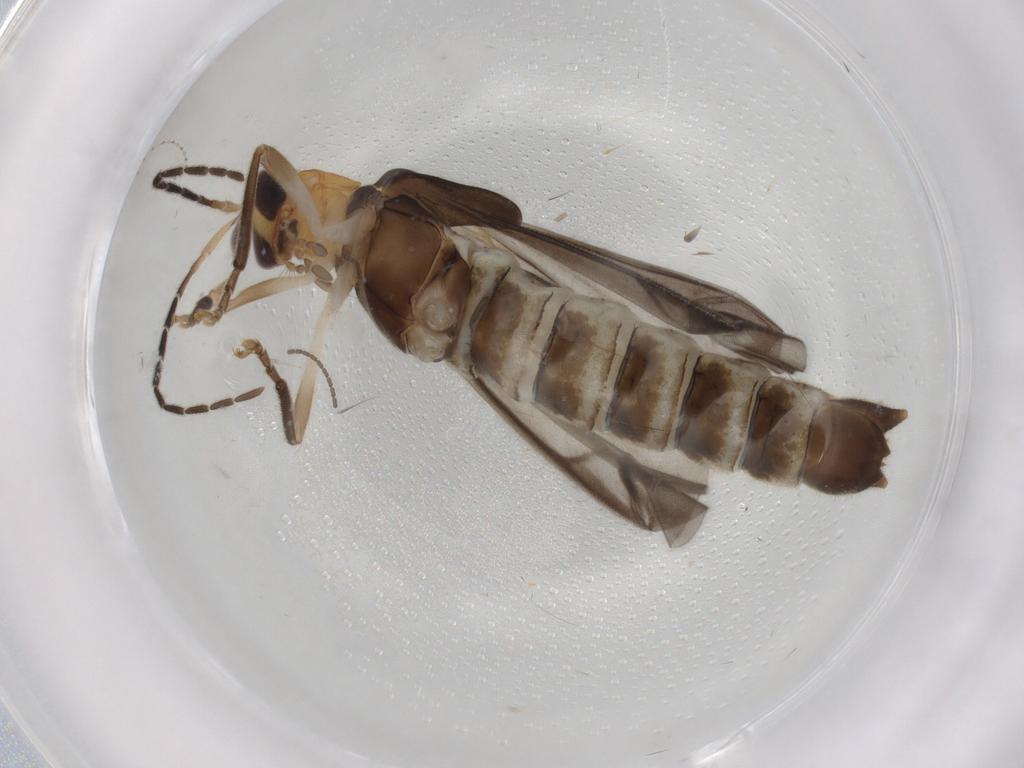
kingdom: Animalia
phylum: Arthropoda
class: Insecta
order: Coleoptera
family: Cantharidae
